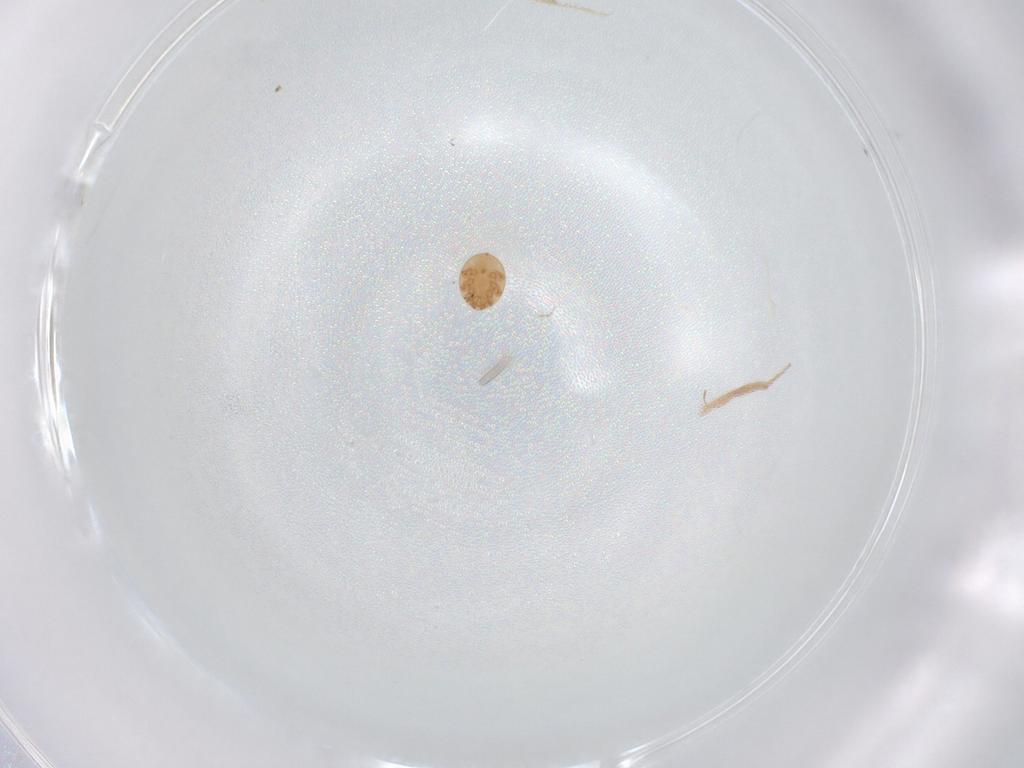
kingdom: Animalia
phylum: Arthropoda
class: Arachnida
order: Mesostigmata
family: Trematuridae
